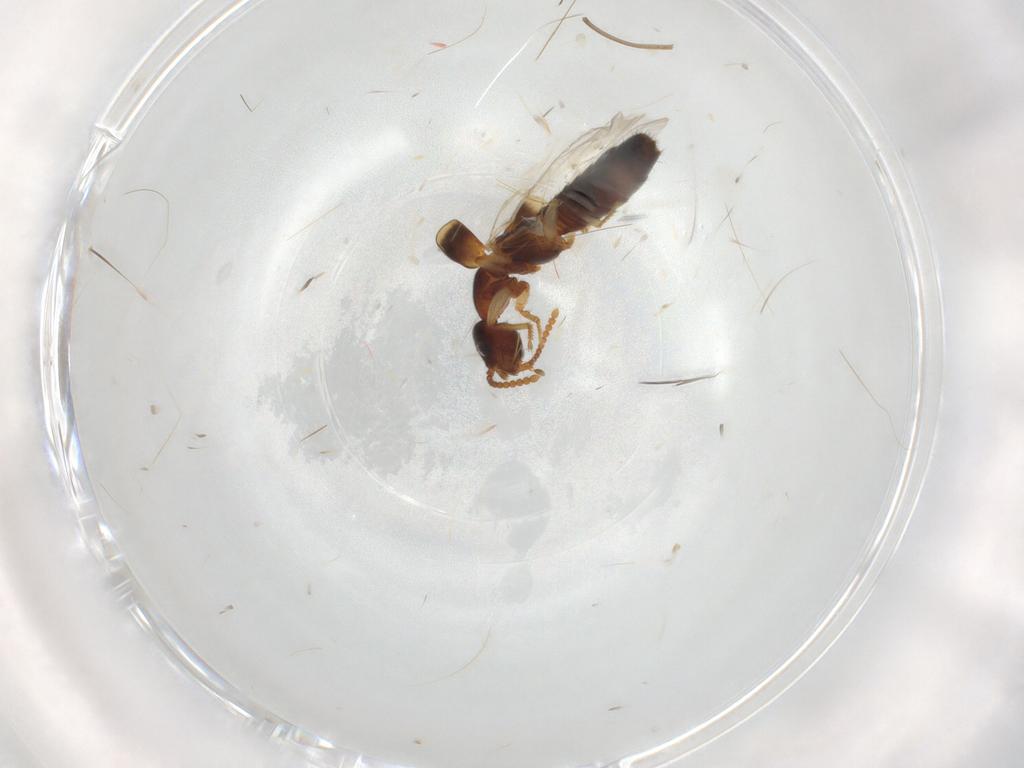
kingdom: Animalia
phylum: Arthropoda
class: Insecta
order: Coleoptera
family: Staphylinidae
